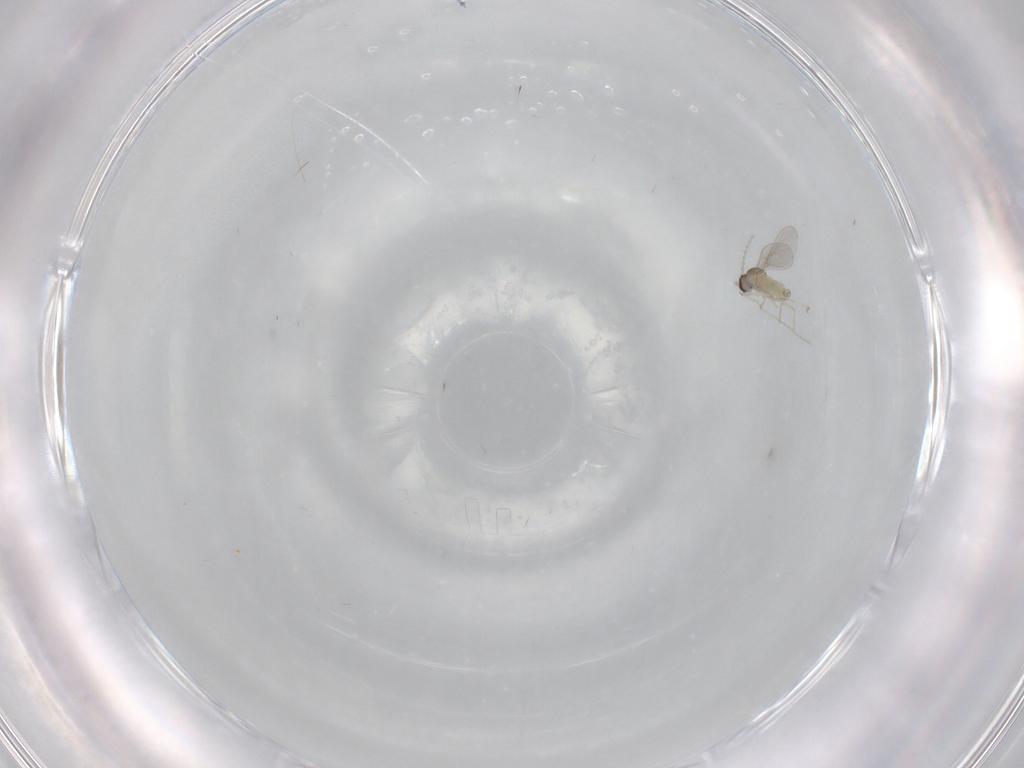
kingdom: Animalia
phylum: Arthropoda
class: Insecta
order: Diptera
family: Cecidomyiidae
